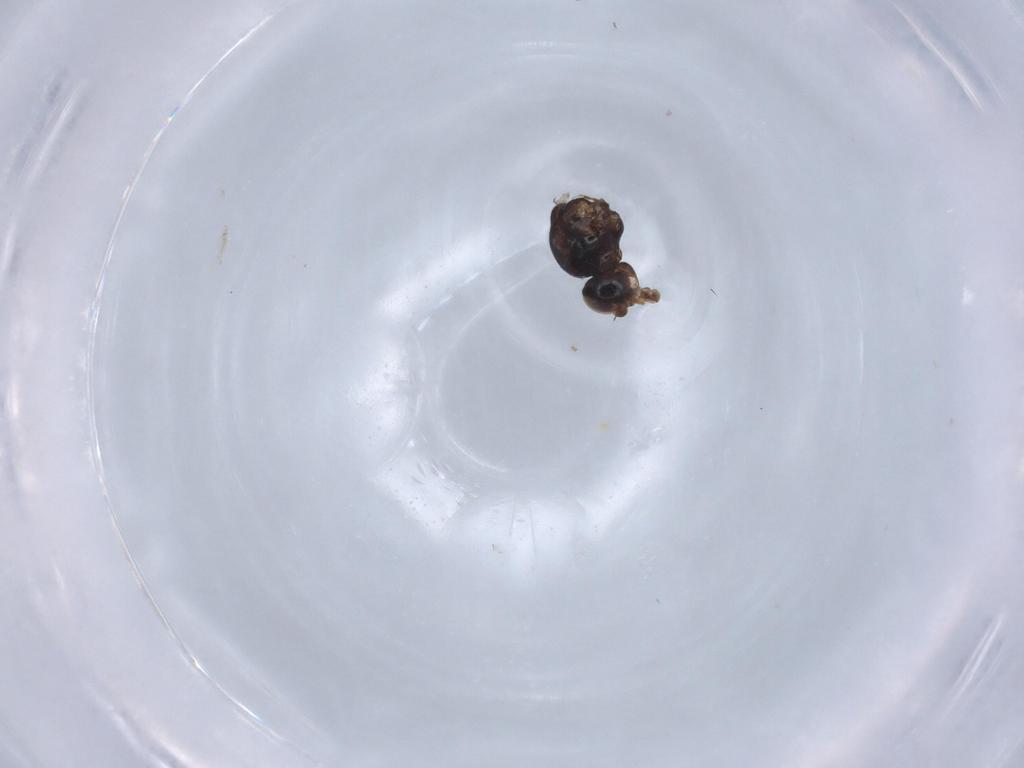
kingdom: Animalia
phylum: Arthropoda
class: Insecta
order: Diptera
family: Chloropidae
